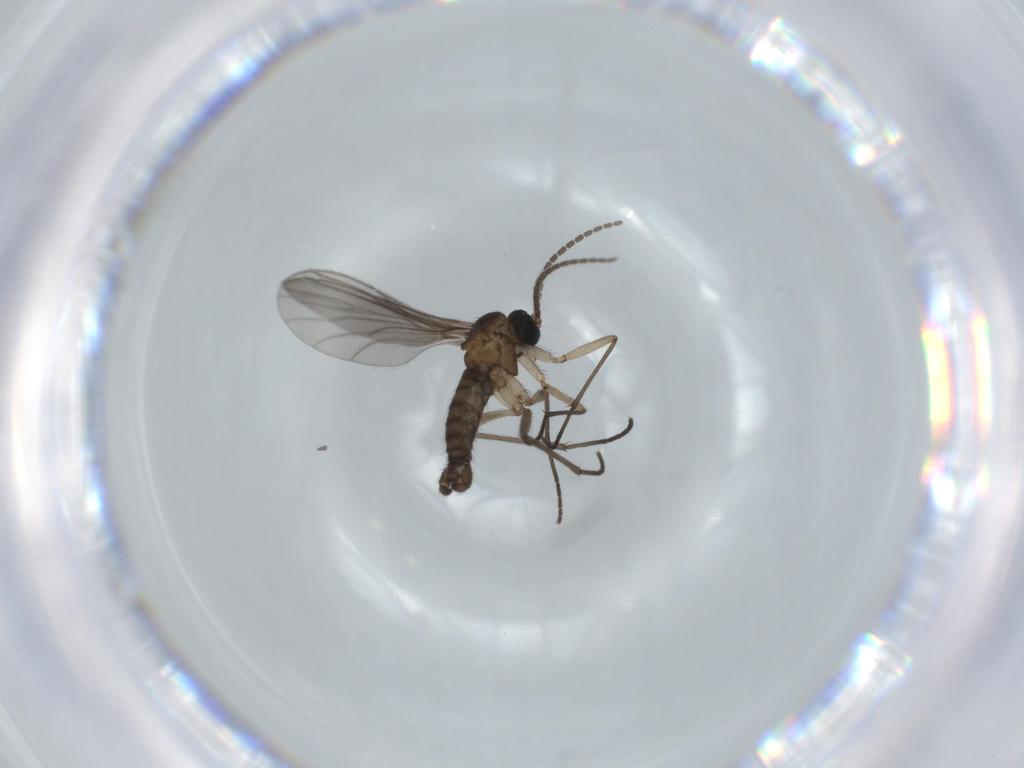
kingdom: Animalia
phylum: Arthropoda
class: Insecta
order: Diptera
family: Sciaridae
